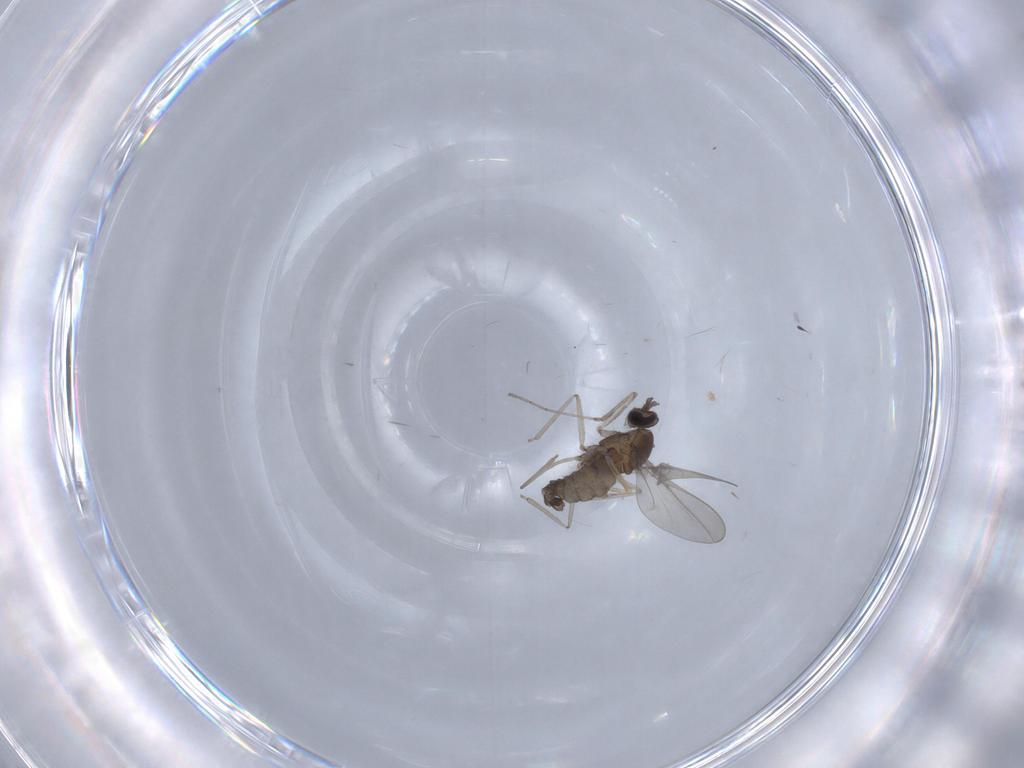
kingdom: Animalia
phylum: Arthropoda
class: Insecta
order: Diptera
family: Cecidomyiidae
